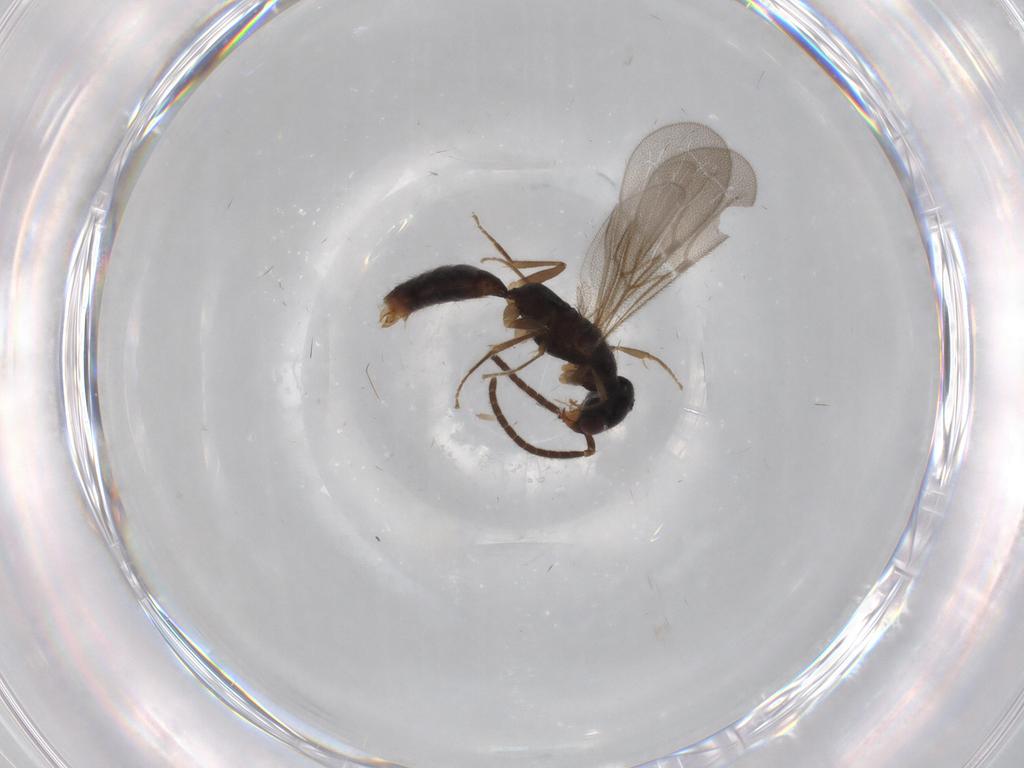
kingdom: Animalia
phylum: Arthropoda
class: Insecta
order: Hymenoptera
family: Bethylidae
